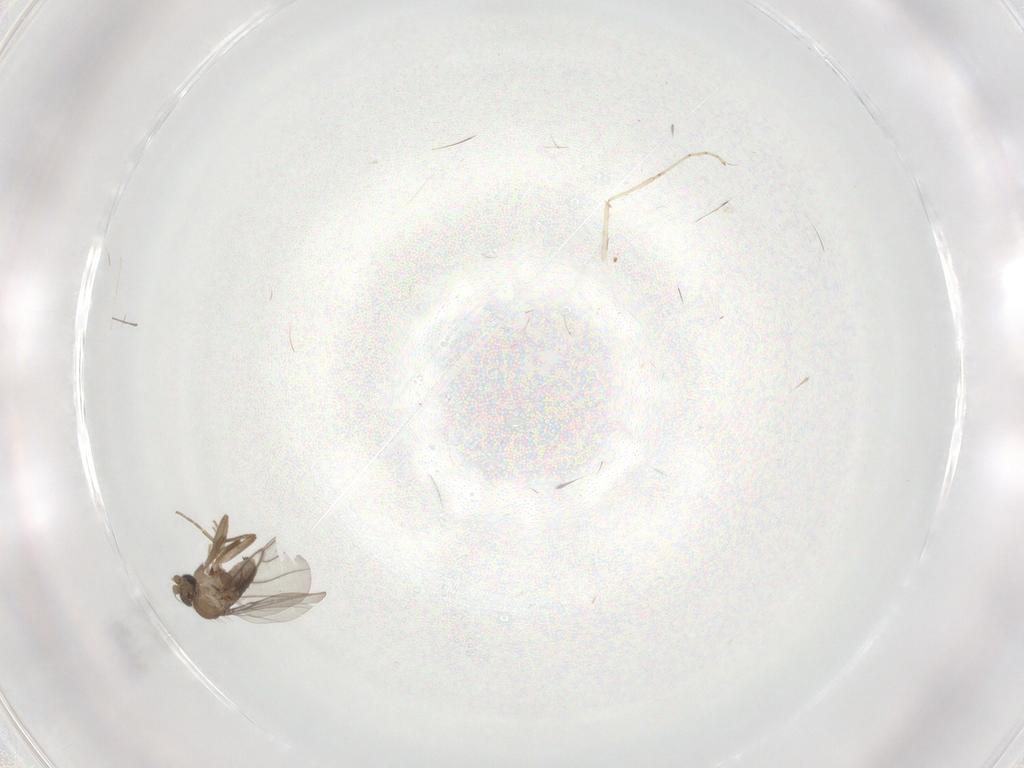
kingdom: Animalia
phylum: Arthropoda
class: Insecta
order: Diptera
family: Cecidomyiidae
